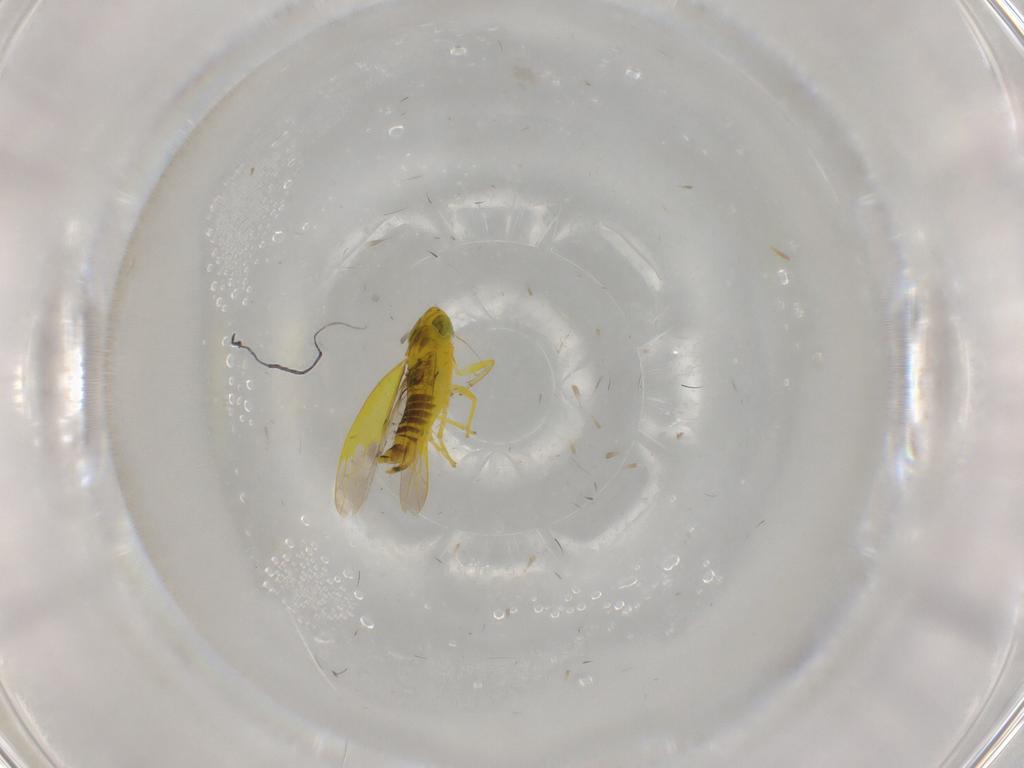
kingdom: Animalia
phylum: Arthropoda
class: Insecta
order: Hemiptera
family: Cicadellidae
